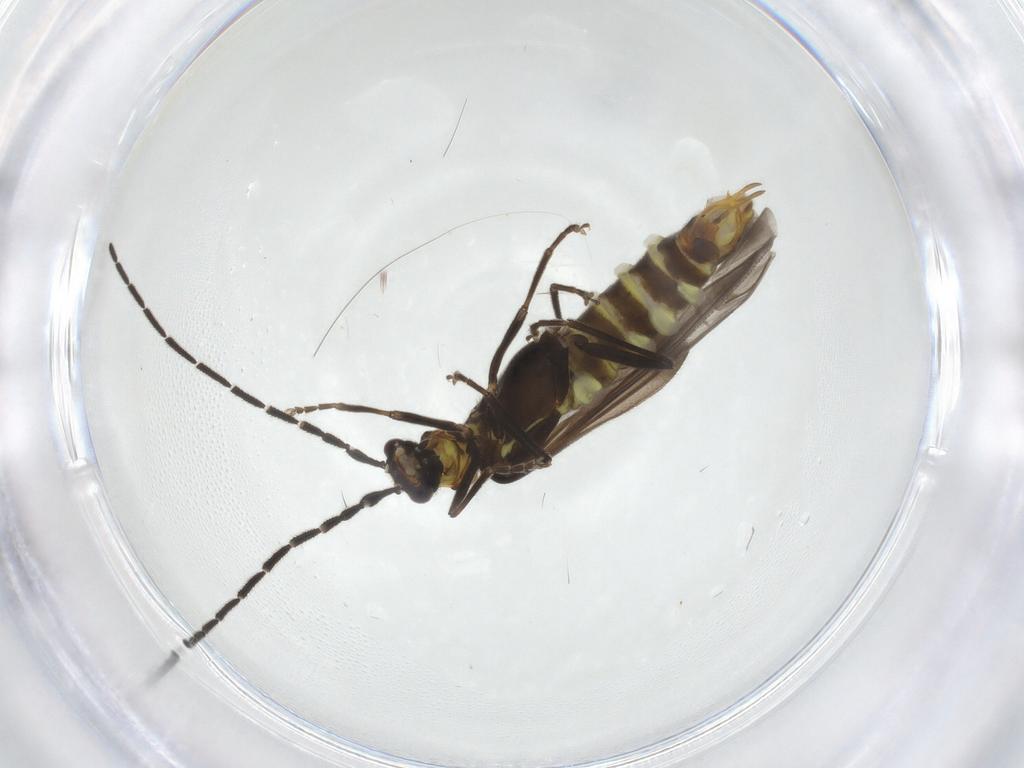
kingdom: Animalia
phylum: Arthropoda
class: Insecta
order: Coleoptera
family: Cantharidae
